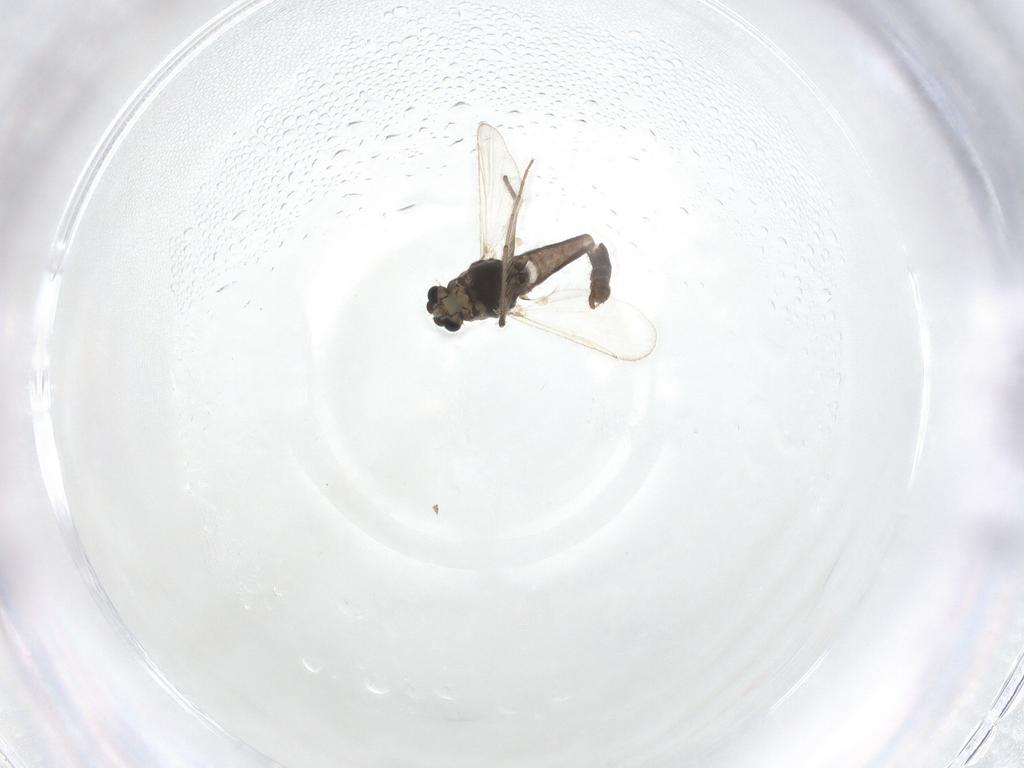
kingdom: Animalia
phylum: Arthropoda
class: Insecta
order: Diptera
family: Chironomidae
